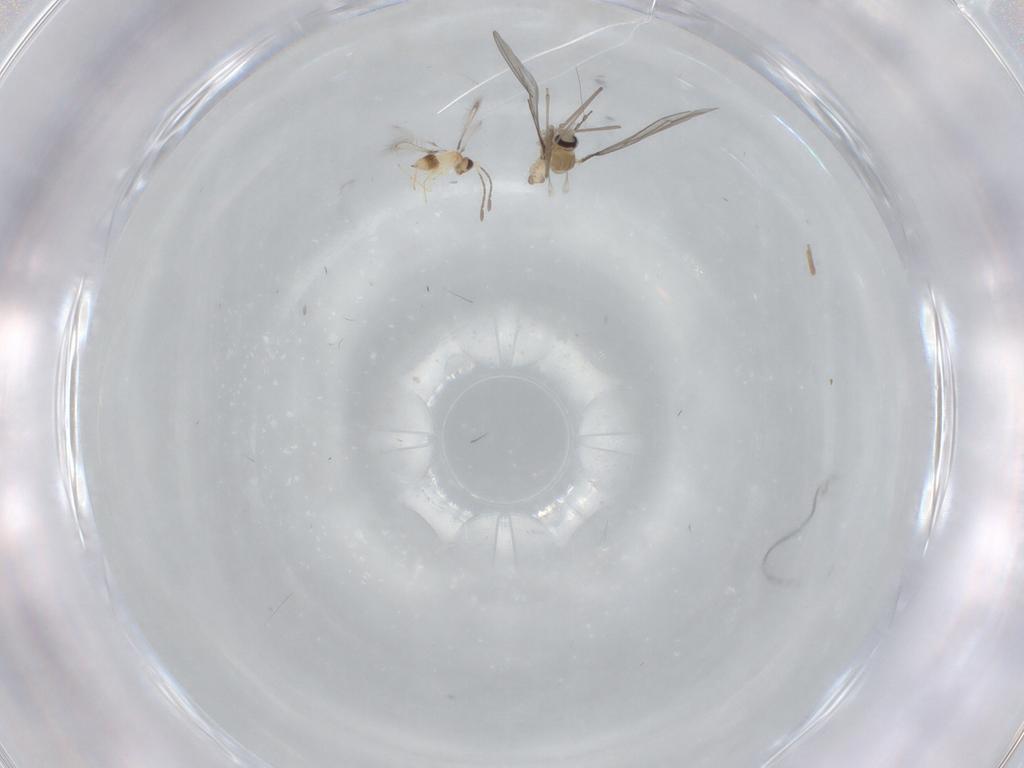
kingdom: Animalia
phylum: Arthropoda
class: Insecta
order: Diptera
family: Cecidomyiidae
